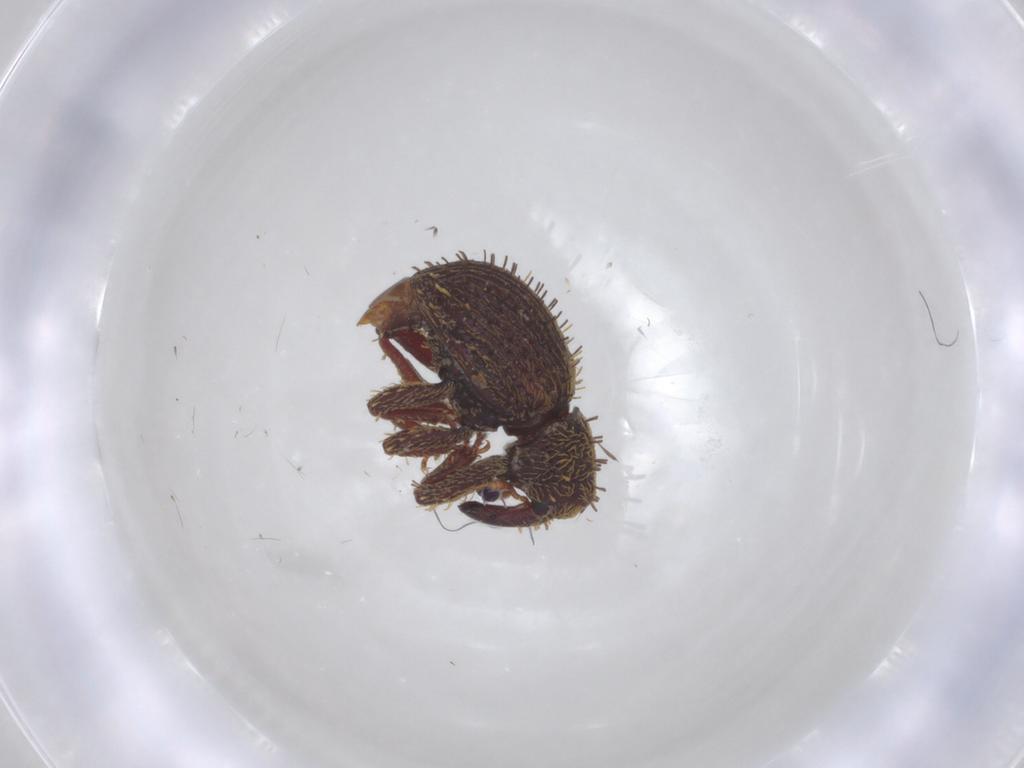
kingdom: Animalia
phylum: Arthropoda
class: Insecta
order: Coleoptera
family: Curculionidae
